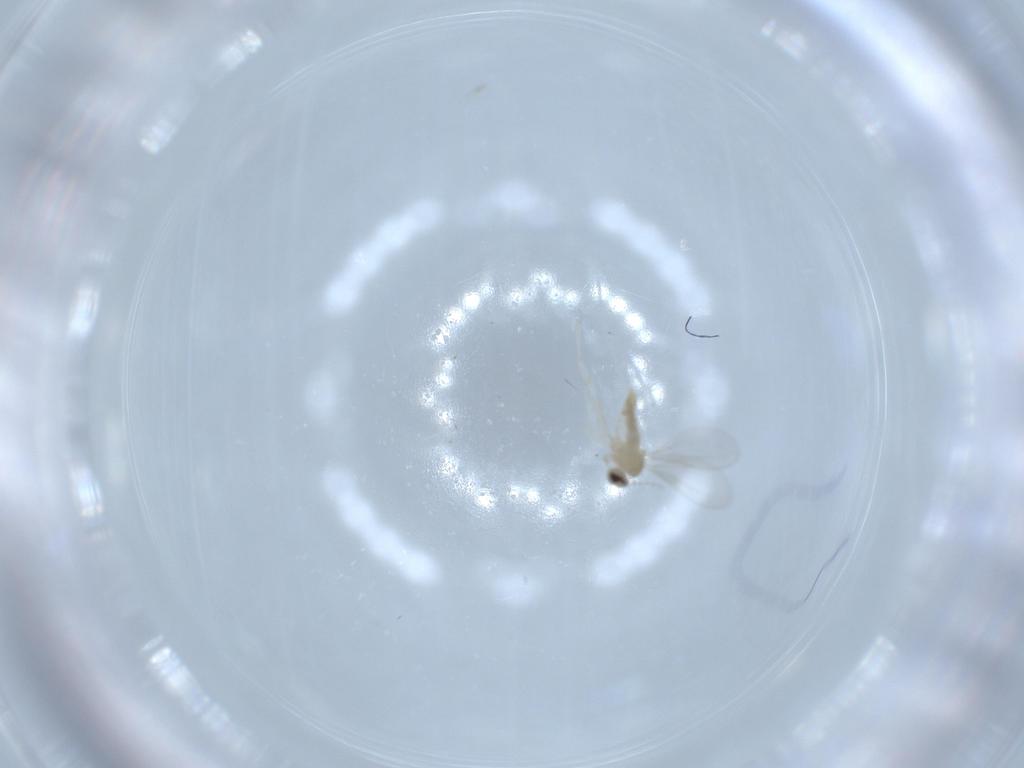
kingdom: Animalia
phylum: Arthropoda
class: Insecta
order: Diptera
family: Cecidomyiidae
